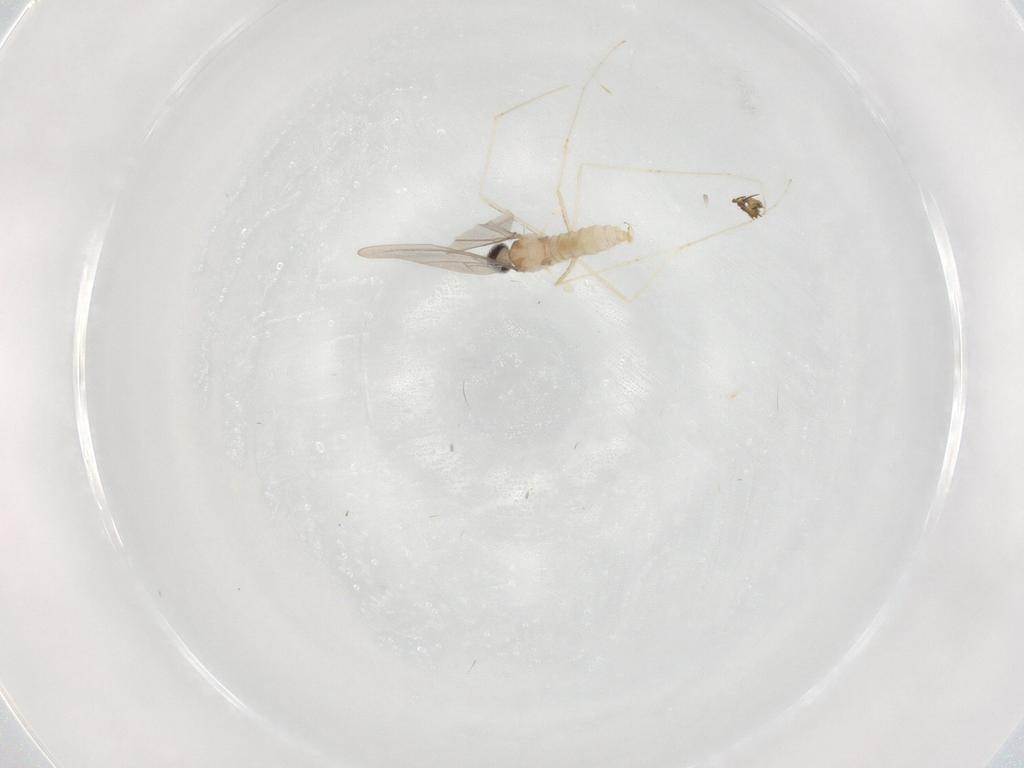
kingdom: Animalia
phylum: Arthropoda
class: Insecta
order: Diptera
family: Cecidomyiidae
